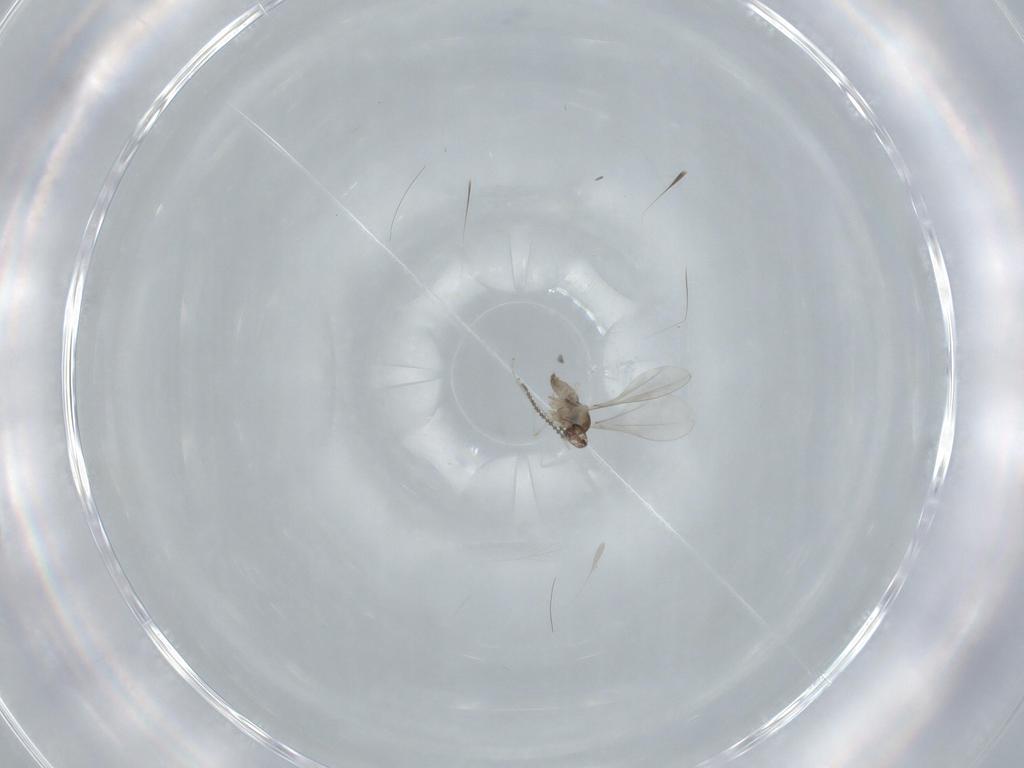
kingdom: Animalia
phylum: Arthropoda
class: Insecta
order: Diptera
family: Cecidomyiidae
